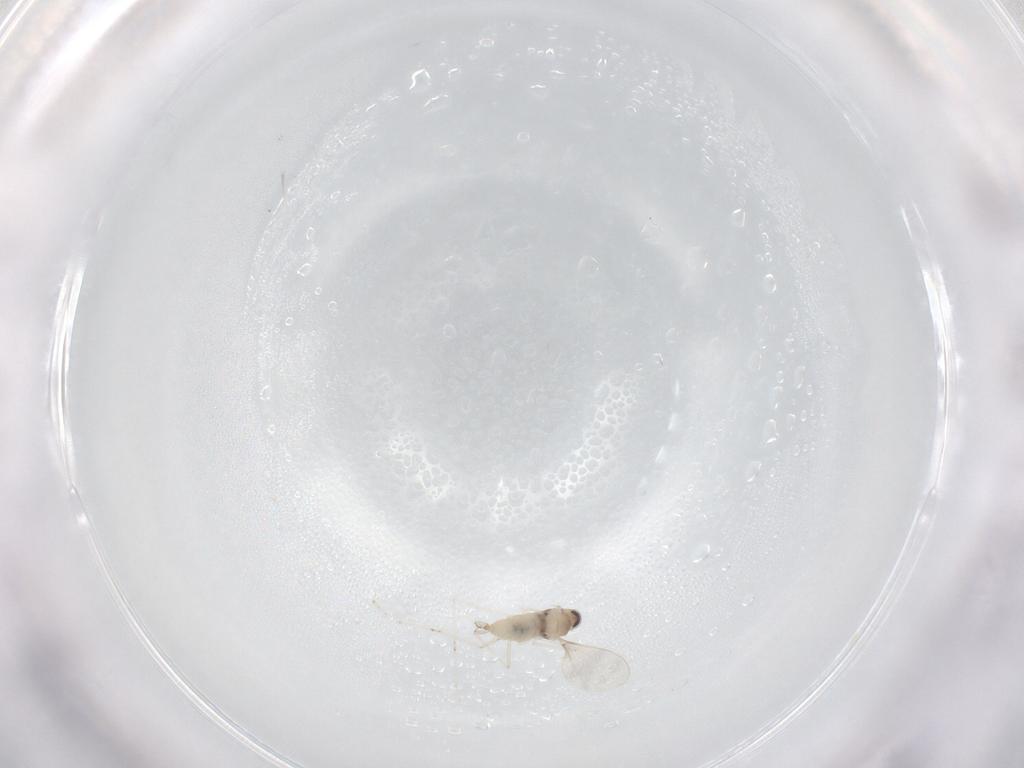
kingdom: Animalia
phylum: Arthropoda
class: Insecta
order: Diptera
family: Cecidomyiidae
